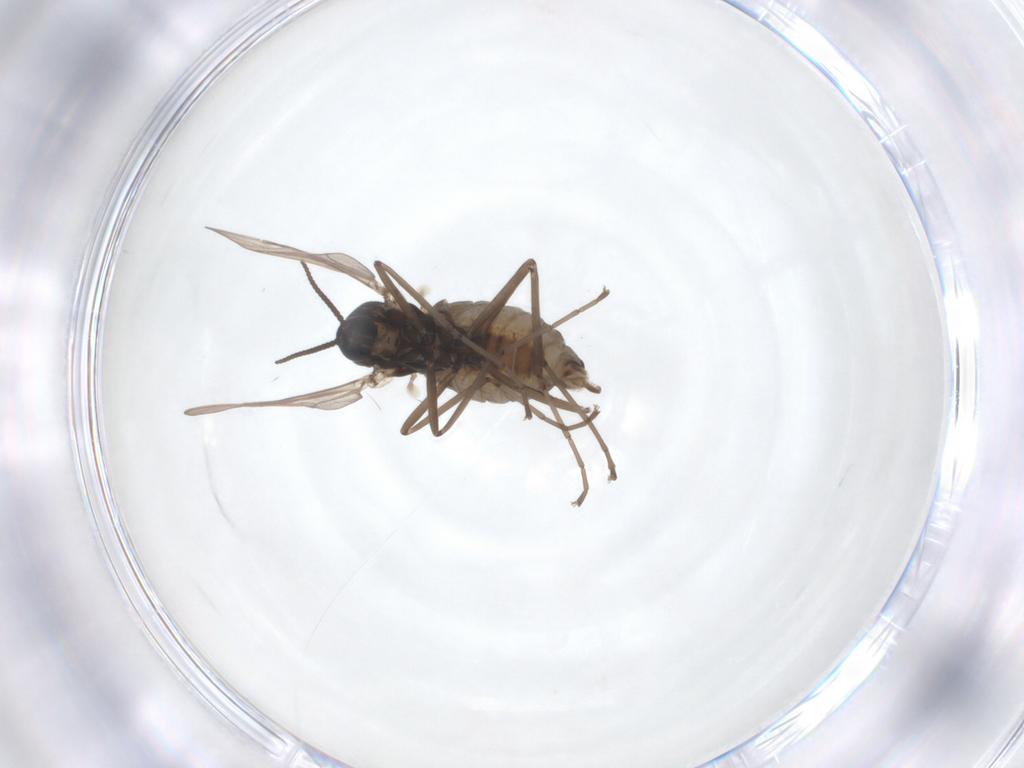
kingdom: Animalia
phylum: Arthropoda
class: Insecta
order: Diptera
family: Cecidomyiidae
